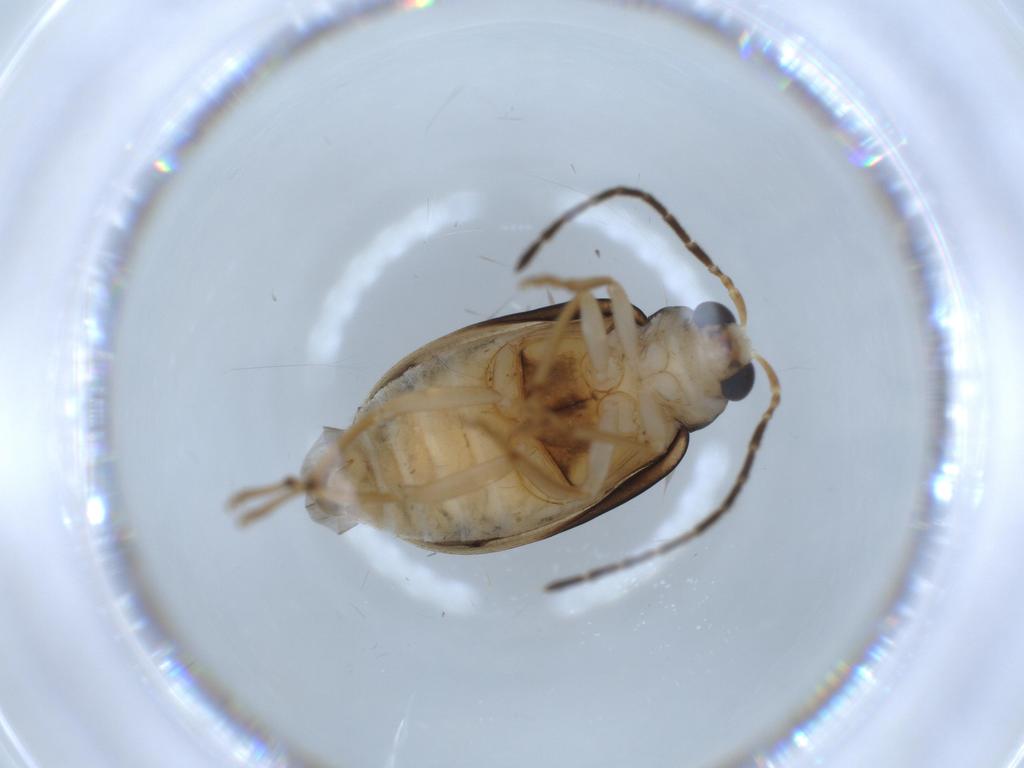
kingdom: Animalia
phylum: Arthropoda
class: Insecta
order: Coleoptera
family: Chrysomelidae
